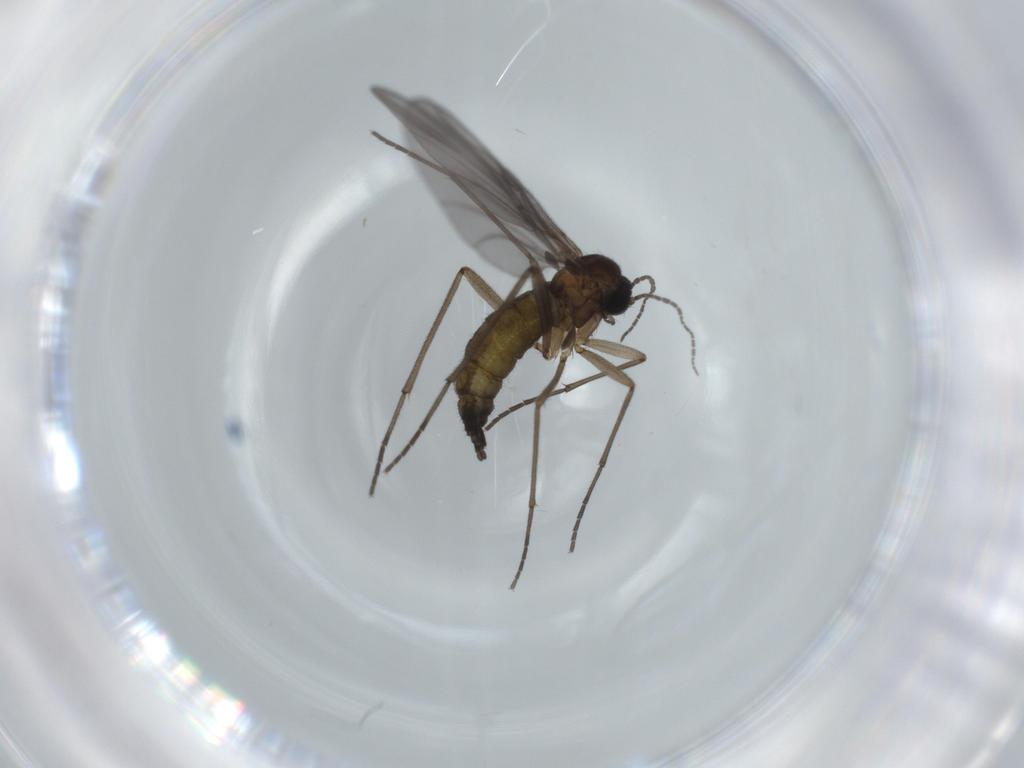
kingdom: Animalia
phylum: Arthropoda
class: Insecta
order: Diptera
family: Phoridae
